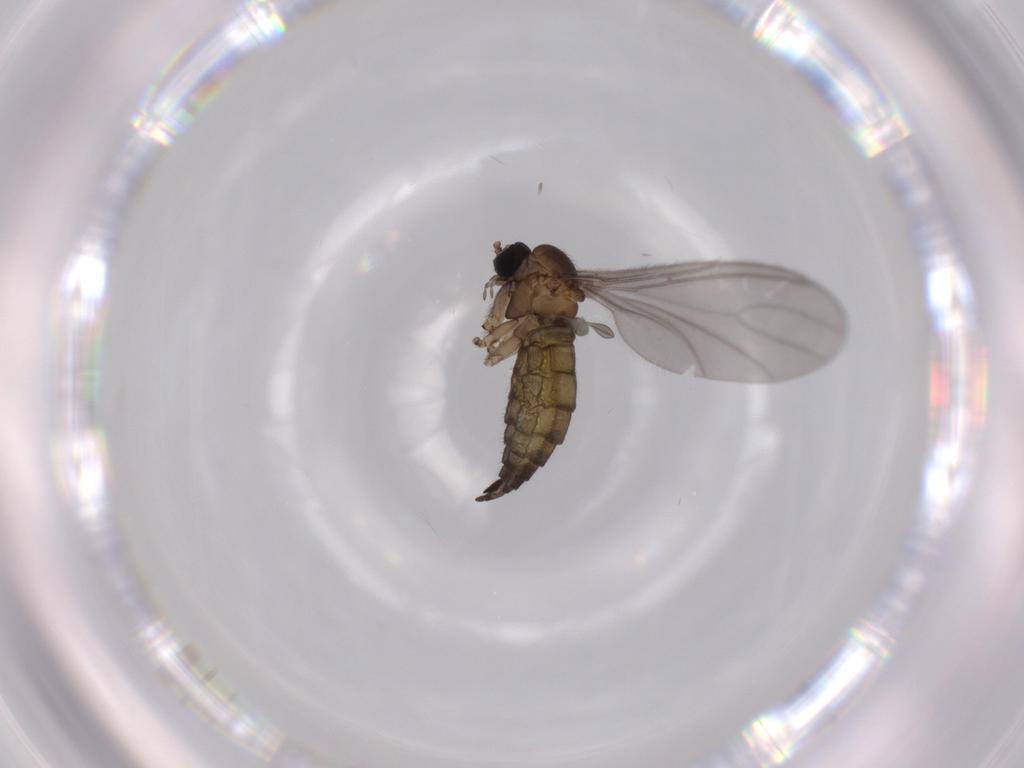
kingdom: Animalia
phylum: Arthropoda
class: Insecta
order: Diptera
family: Sciaridae
